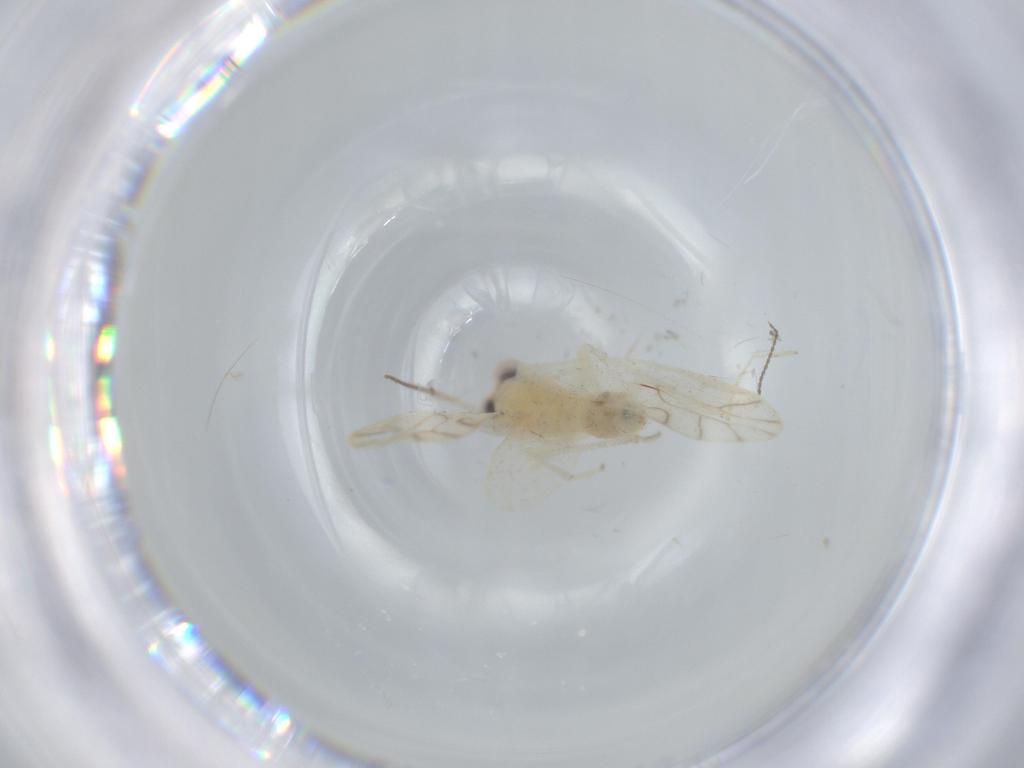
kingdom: Animalia
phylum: Arthropoda
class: Insecta
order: Psocodea
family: Caeciliusidae
